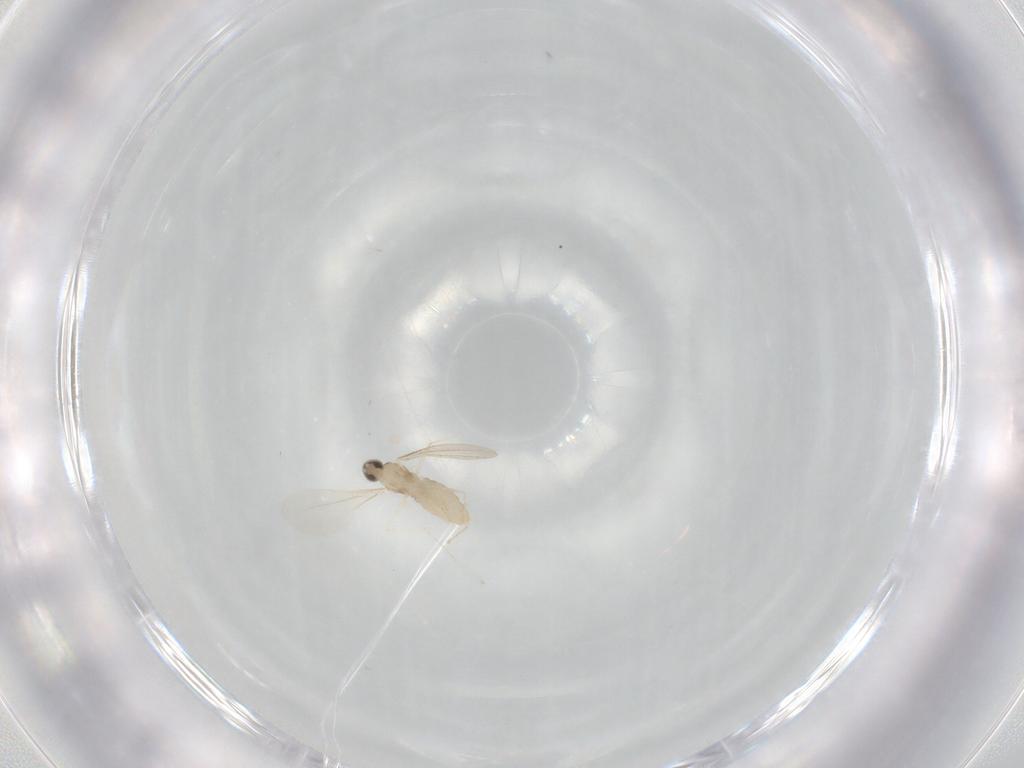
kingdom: Animalia
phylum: Arthropoda
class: Insecta
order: Diptera
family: Cecidomyiidae
